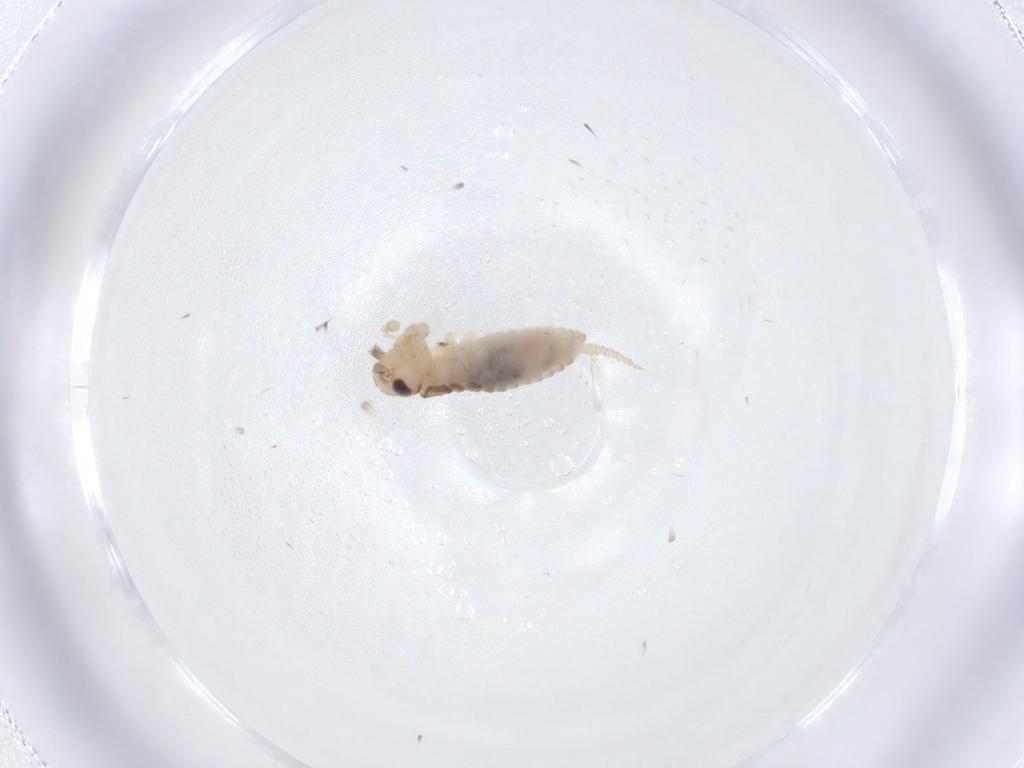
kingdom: Animalia
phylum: Arthropoda
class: Insecta
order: Orthoptera
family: Trigonidiidae
